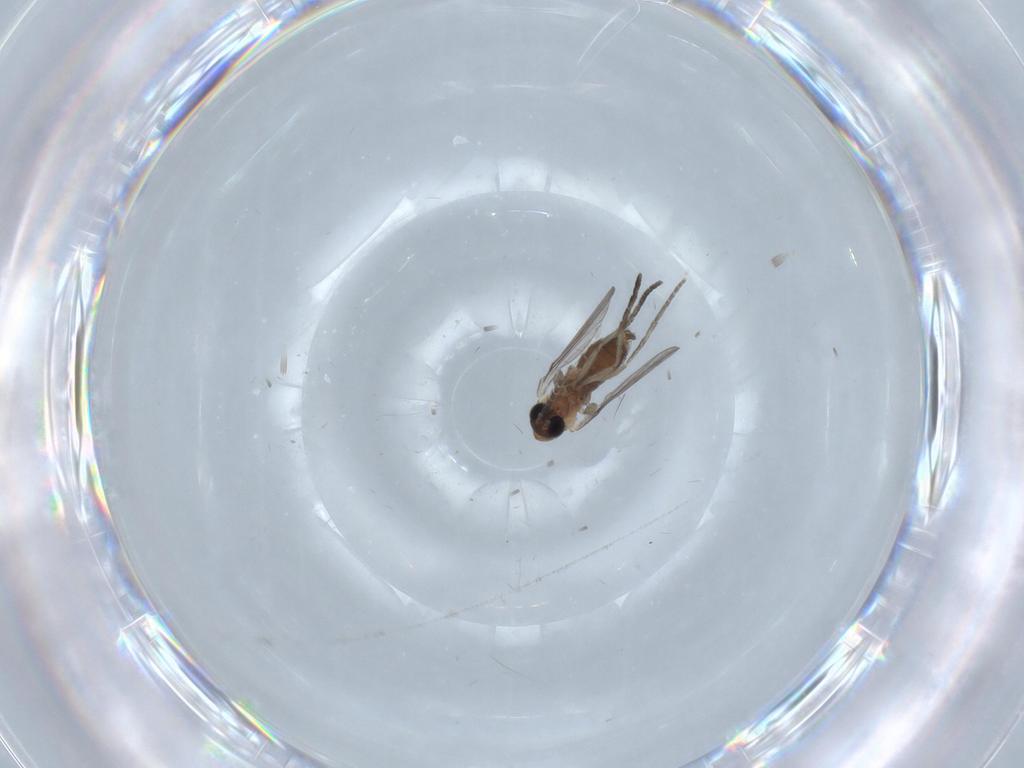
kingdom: Animalia
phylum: Arthropoda
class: Insecta
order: Diptera
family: Psychodidae
